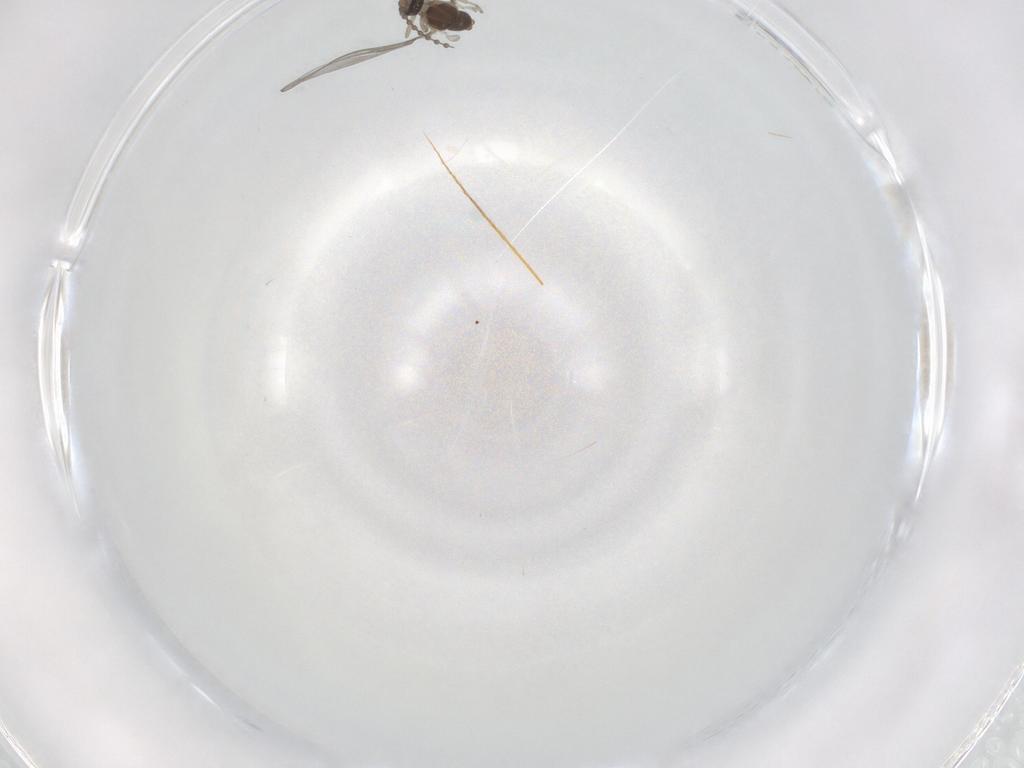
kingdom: Animalia
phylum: Arthropoda
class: Insecta
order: Diptera
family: Cecidomyiidae
